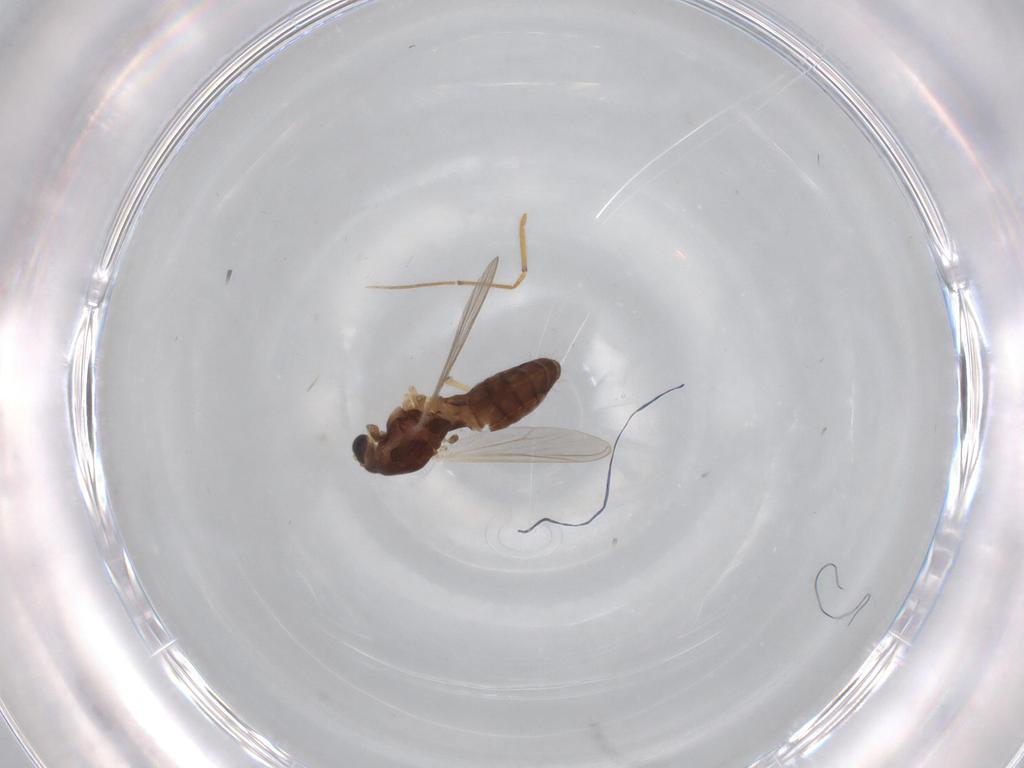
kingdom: Animalia
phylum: Arthropoda
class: Insecta
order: Diptera
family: Chironomidae
